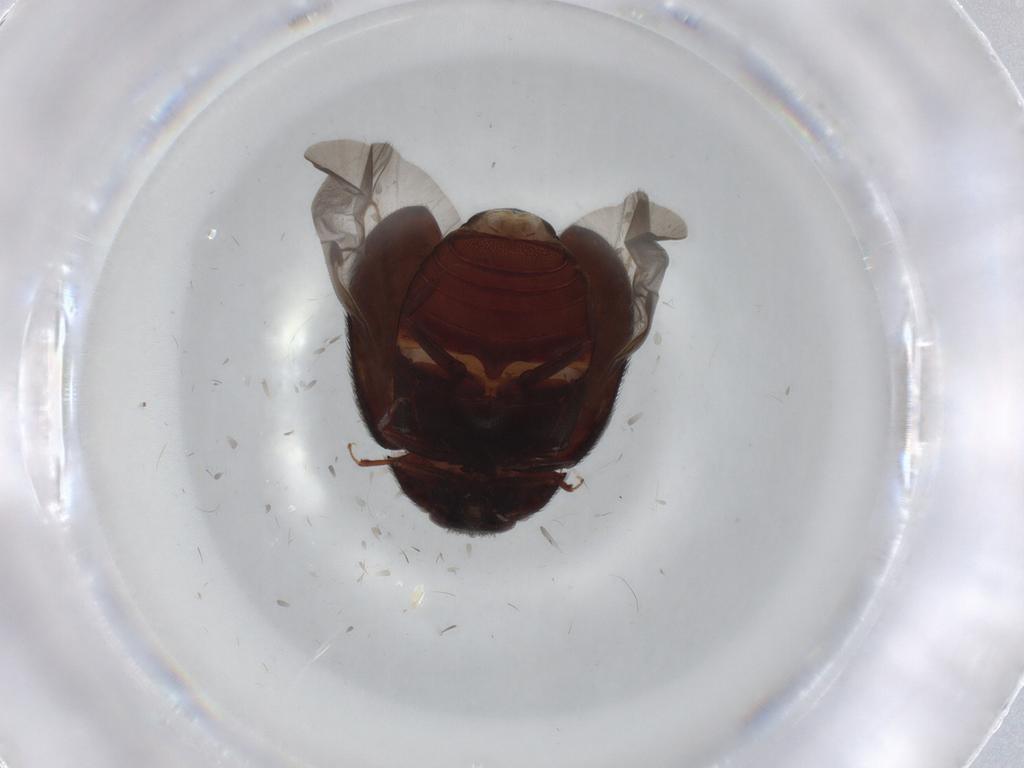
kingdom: Animalia
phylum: Arthropoda
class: Insecta
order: Coleoptera
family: Dermestidae
